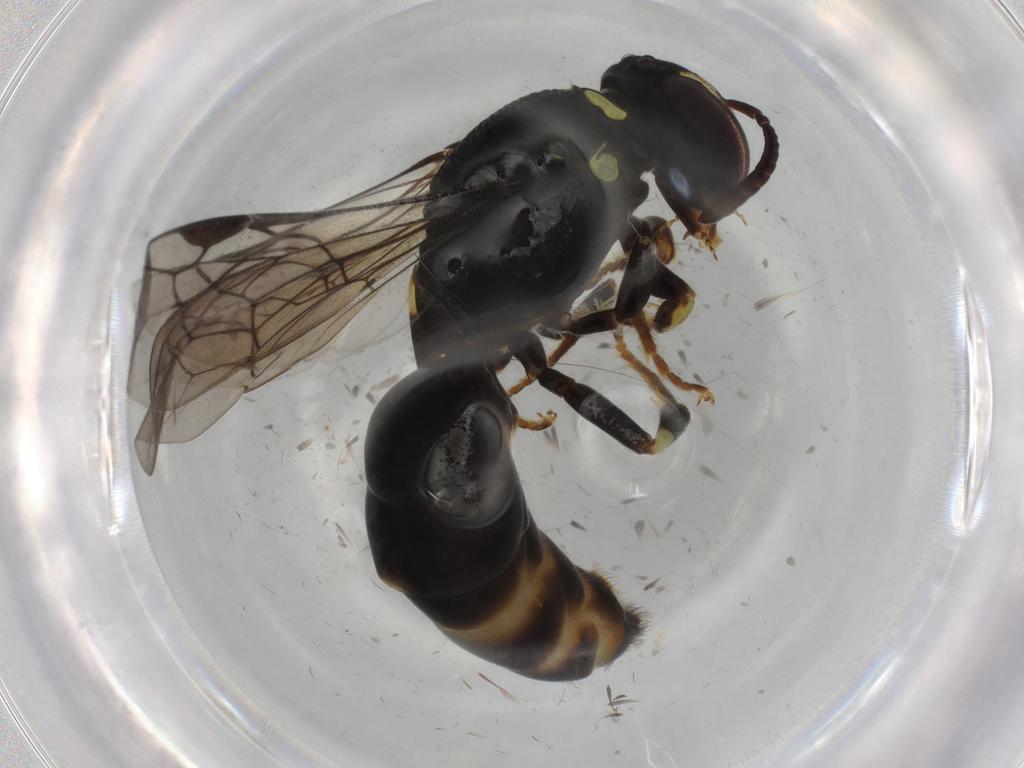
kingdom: Animalia
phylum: Arthropoda
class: Insecta
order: Hymenoptera
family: Colletidae
